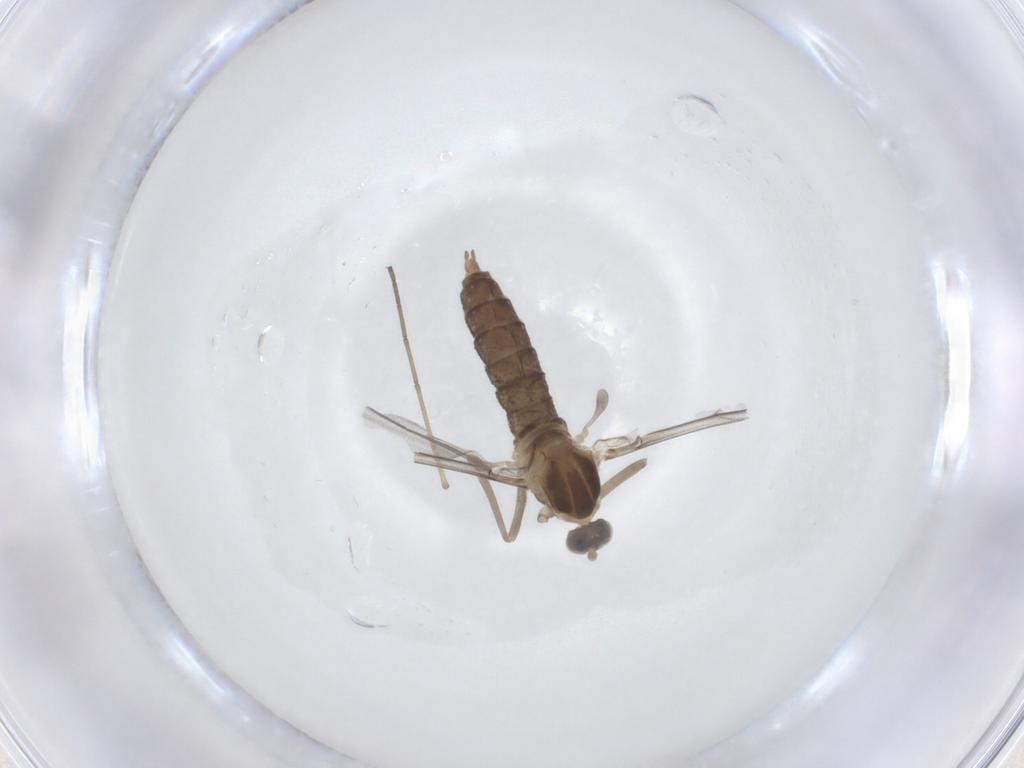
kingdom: Animalia
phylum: Arthropoda
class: Insecta
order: Diptera
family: Cecidomyiidae
